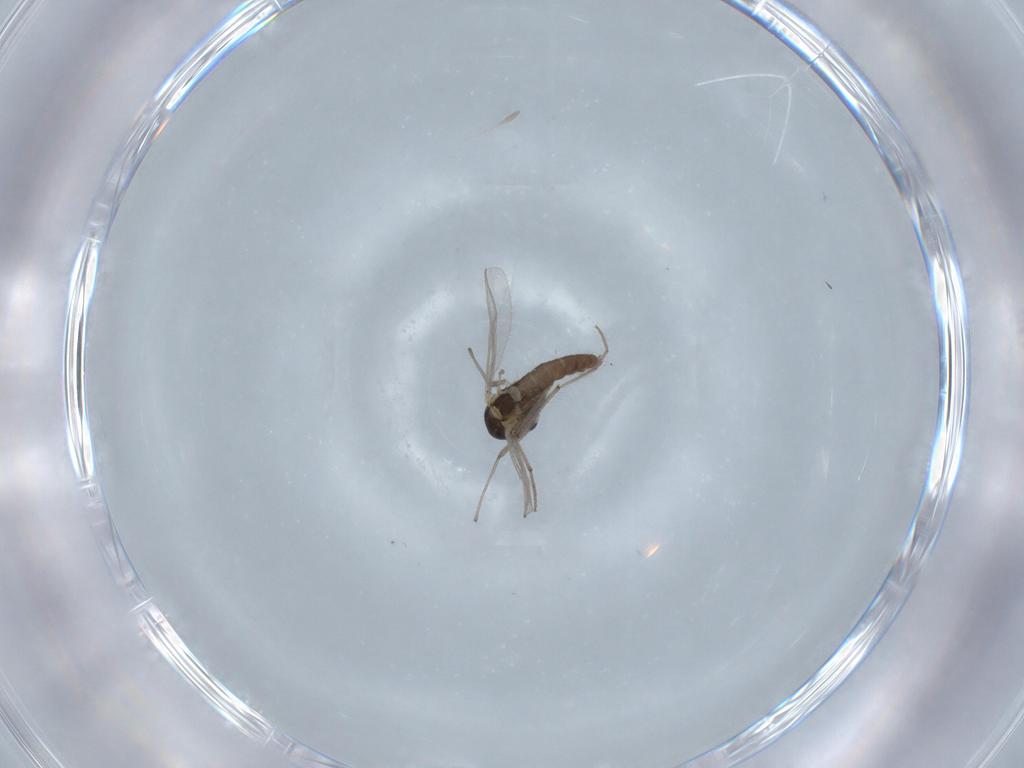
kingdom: Animalia
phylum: Arthropoda
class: Insecta
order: Diptera
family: Chironomidae
